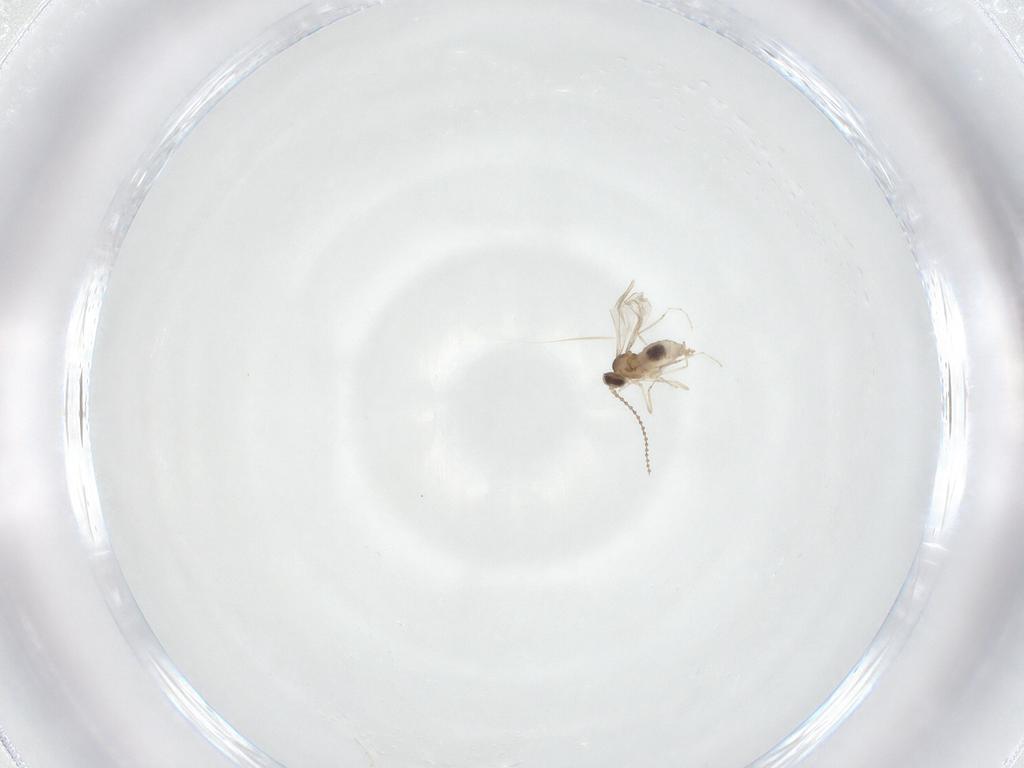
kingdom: Animalia
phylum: Arthropoda
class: Insecta
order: Diptera
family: Cecidomyiidae
